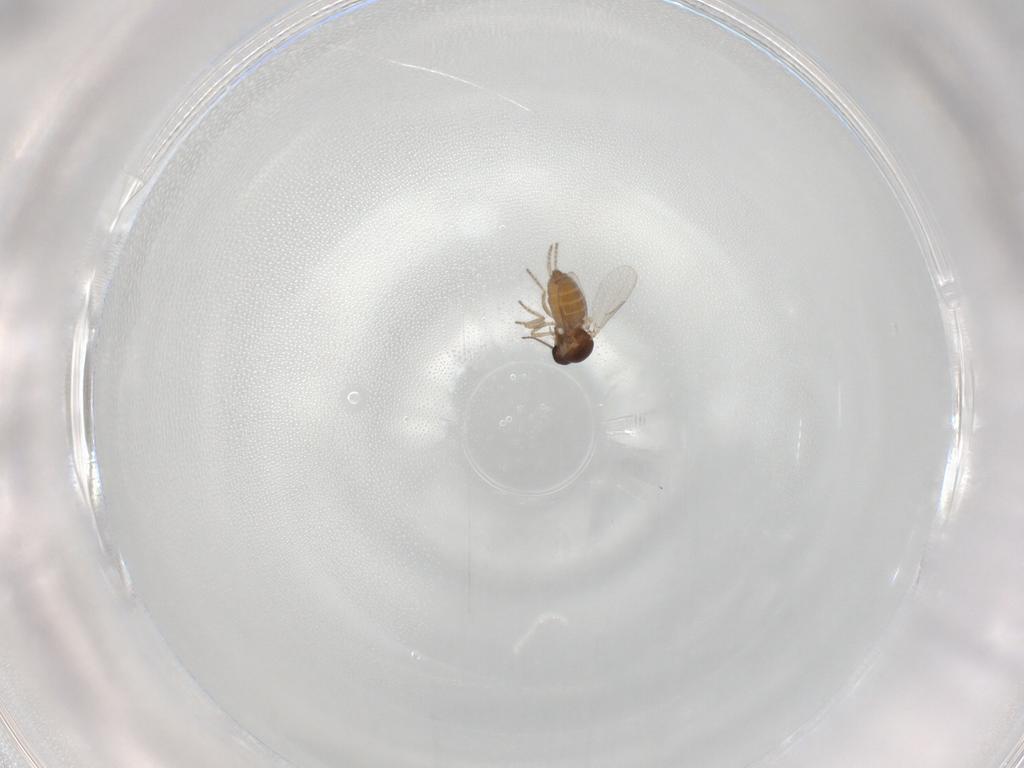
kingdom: Animalia
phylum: Arthropoda
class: Insecta
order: Diptera
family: Ceratopogonidae
